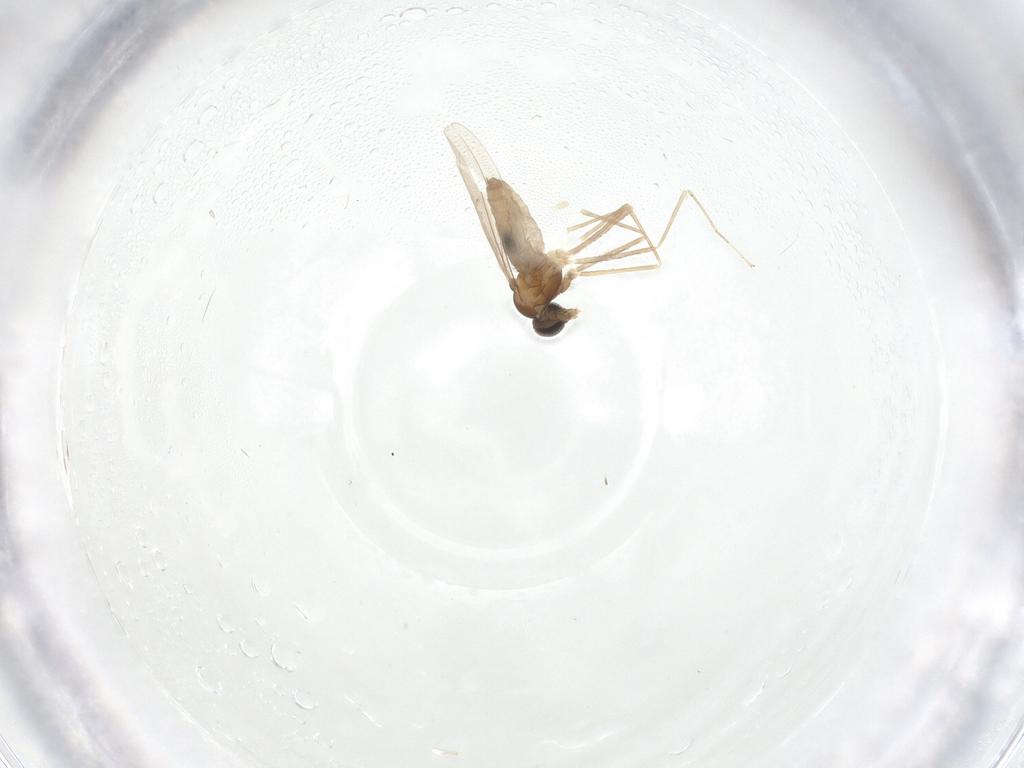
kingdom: Animalia
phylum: Arthropoda
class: Insecta
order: Diptera
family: Cecidomyiidae
